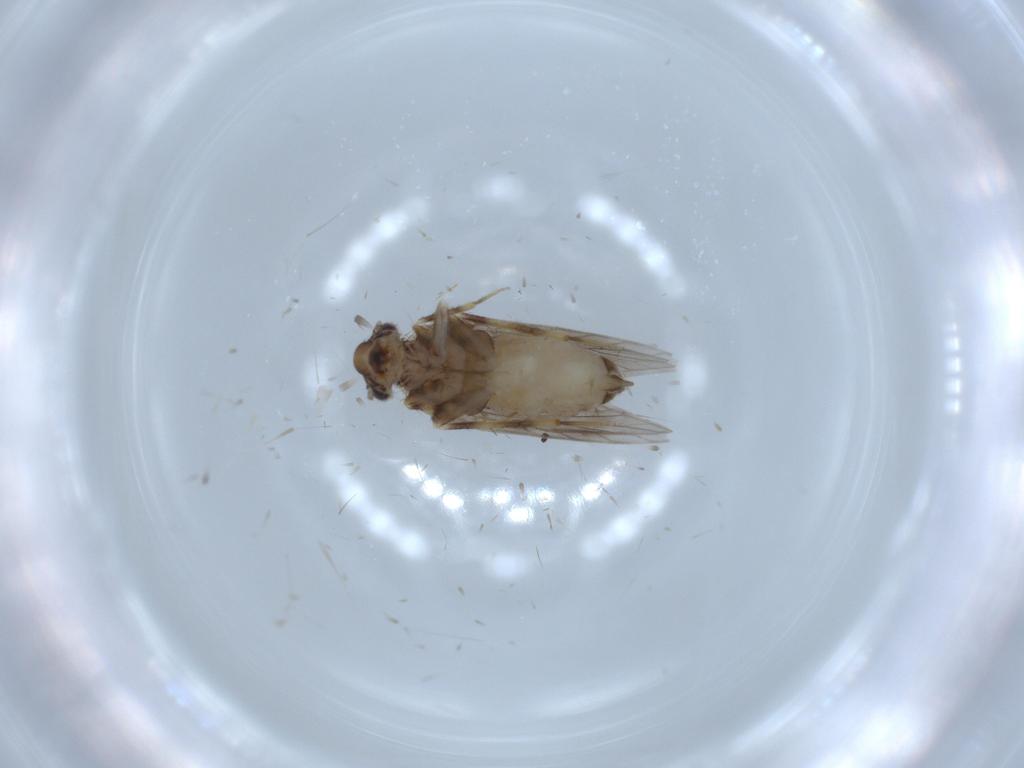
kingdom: Animalia
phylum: Arthropoda
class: Insecta
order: Psocodea
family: Lepidopsocidae
